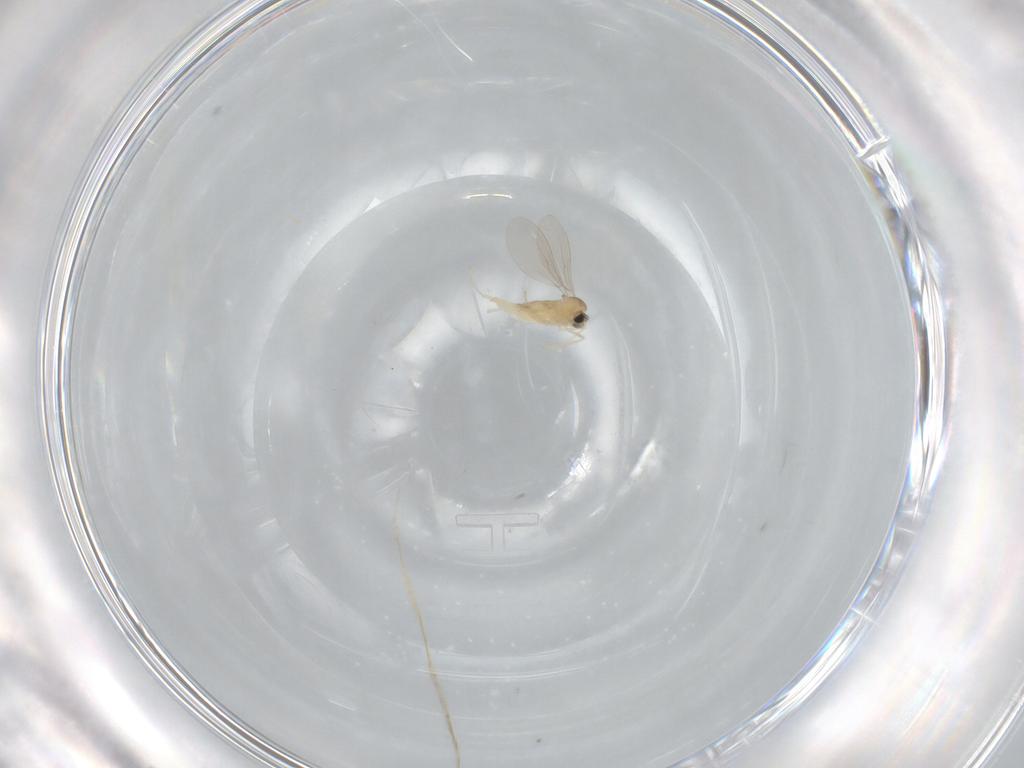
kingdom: Animalia
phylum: Arthropoda
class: Insecta
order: Diptera
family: Cecidomyiidae
